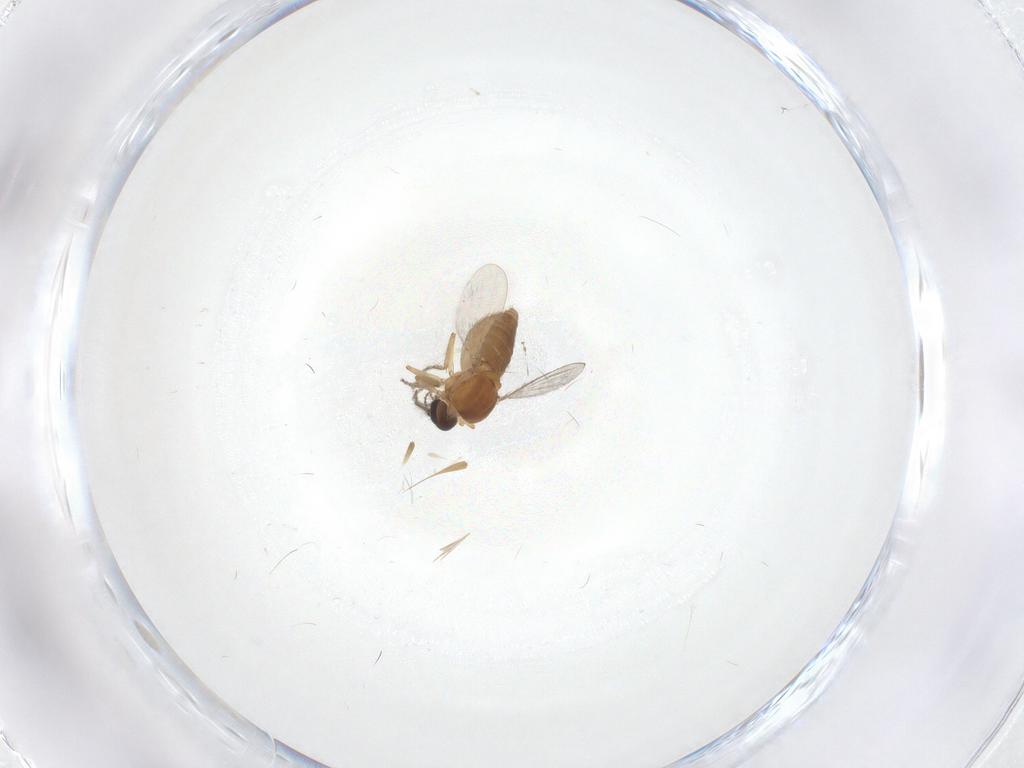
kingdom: Animalia
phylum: Arthropoda
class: Insecta
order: Diptera
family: Ceratopogonidae
